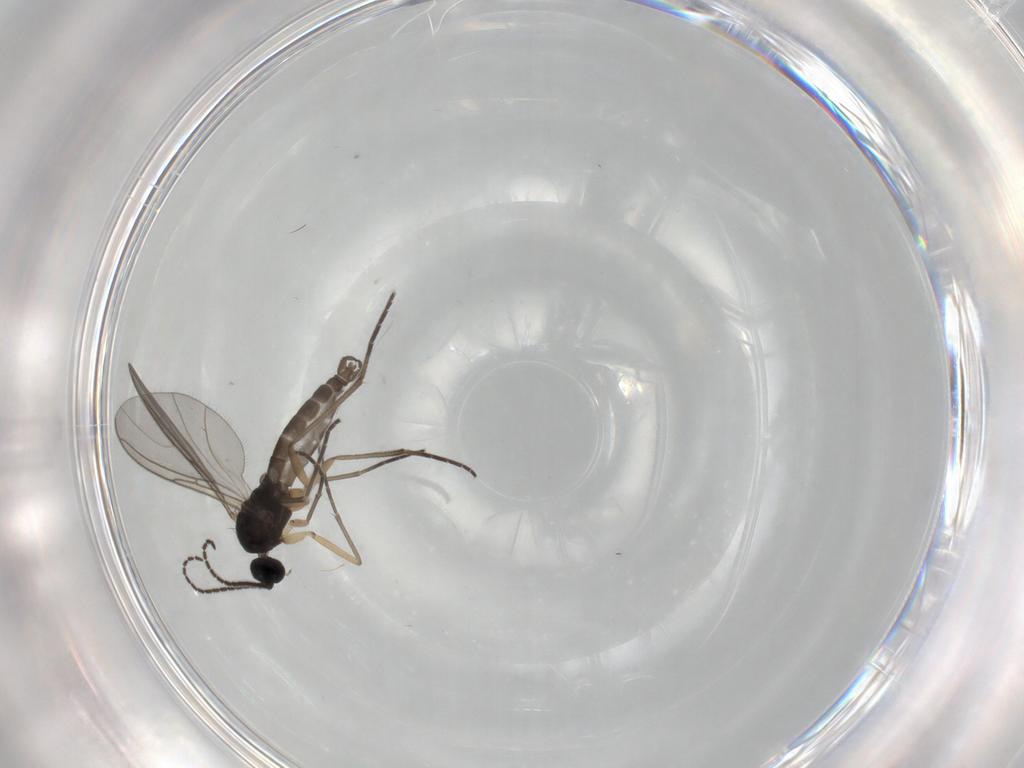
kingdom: Animalia
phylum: Arthropoda
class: Insecta
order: Diptera
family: Sciaridae
